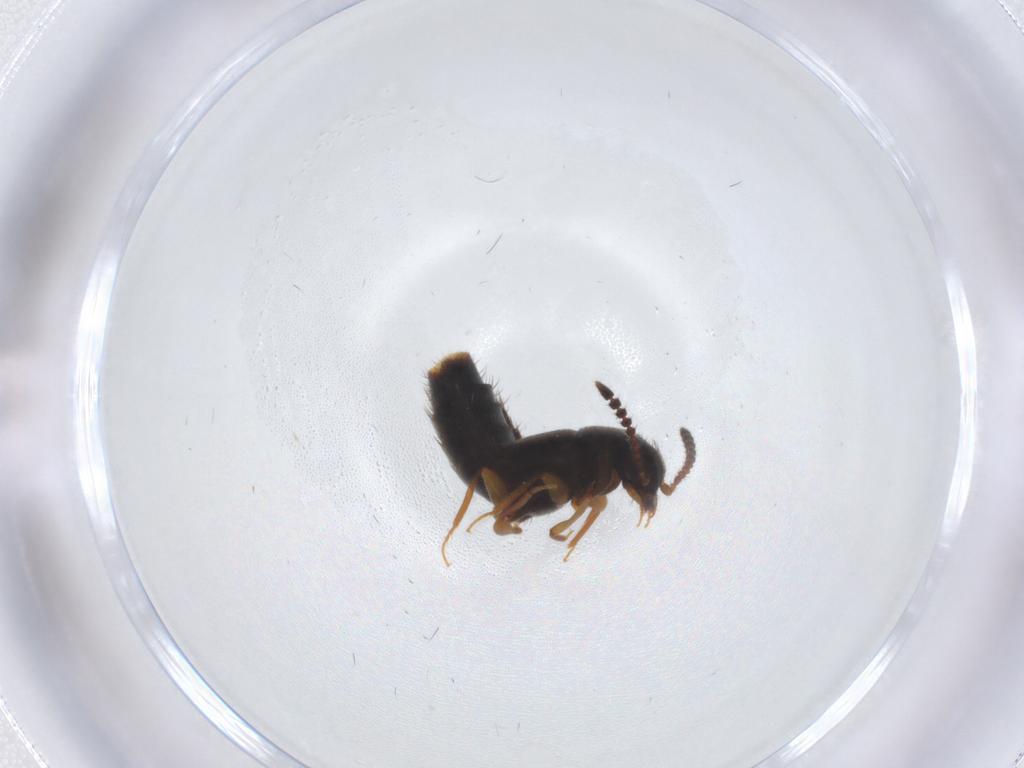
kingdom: Animalia
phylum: Arthropoda
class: Insecta
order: Coleoptera
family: Staphylinidae
